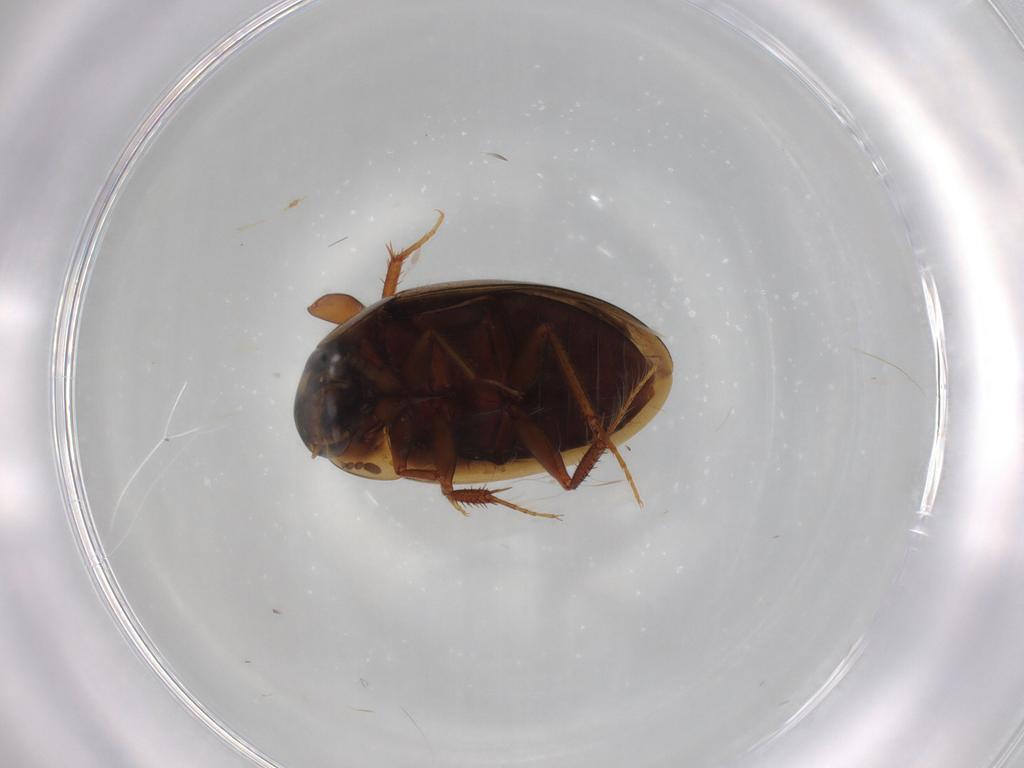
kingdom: Animalia
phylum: Arthropoda
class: Insecta
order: Coleoptera
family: Hydrophilidae
